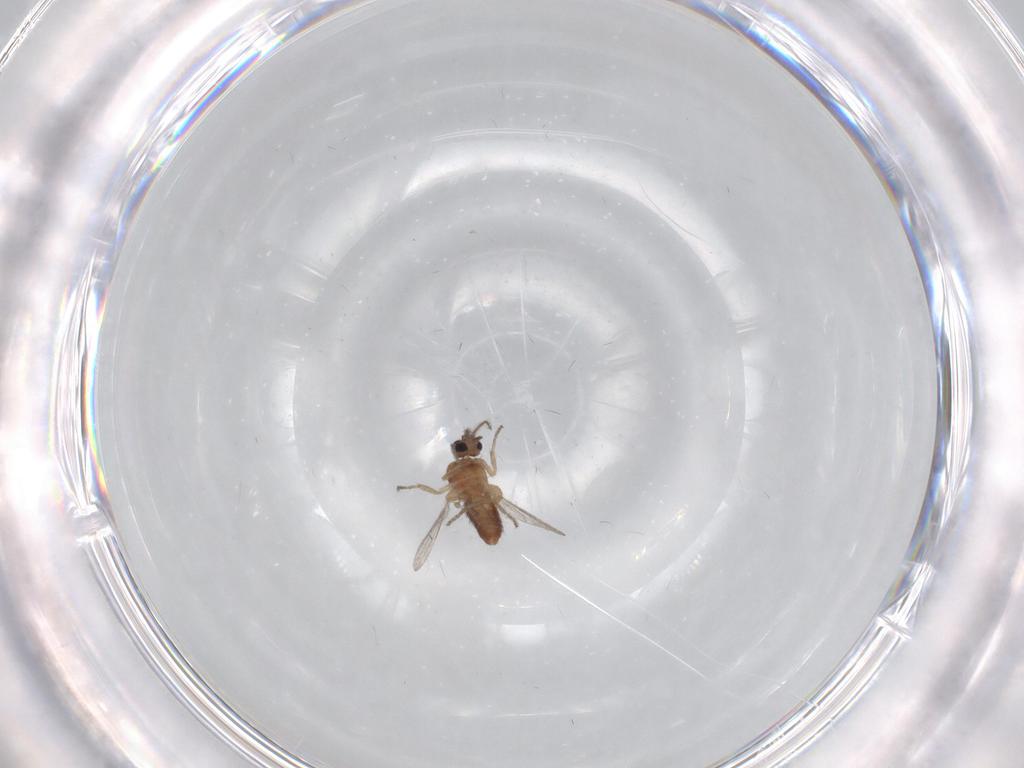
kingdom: Animalia
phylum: Arthropoda
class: Insecta
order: Diptera
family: Ceratopogonidae
